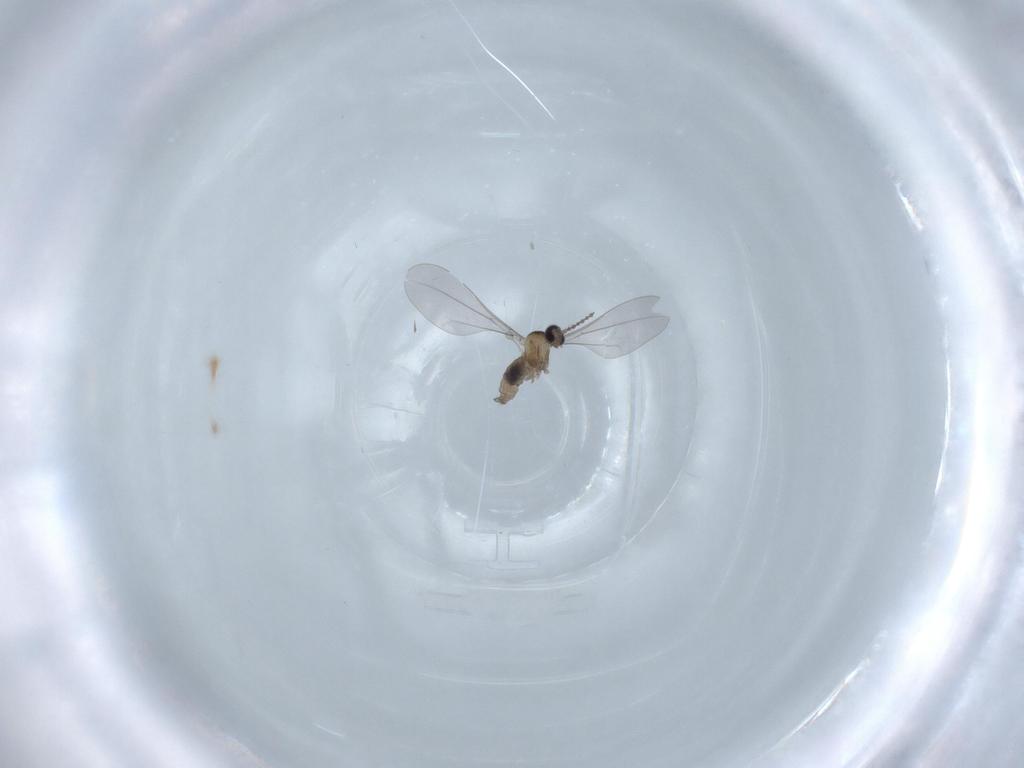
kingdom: Animalia
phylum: Arthropoda
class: Insecta
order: Diptera
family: Cecidomyiidae
